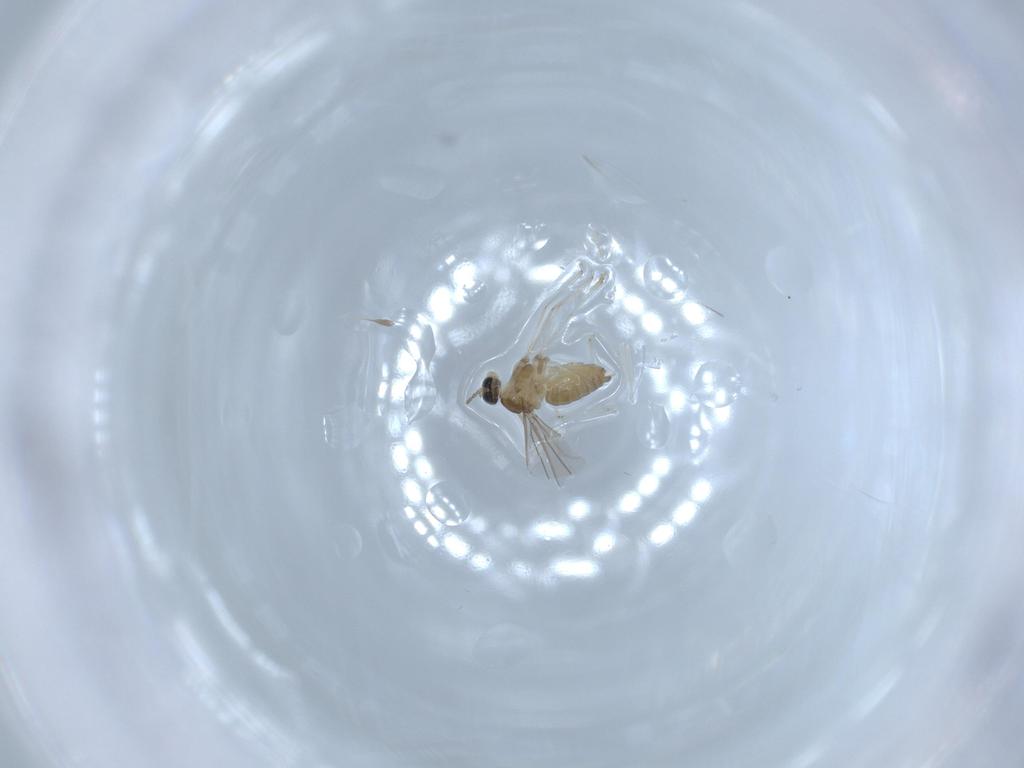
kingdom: Animalia
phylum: Arthropoda
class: Insecta
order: Diptera
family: Cecidomyiidae
